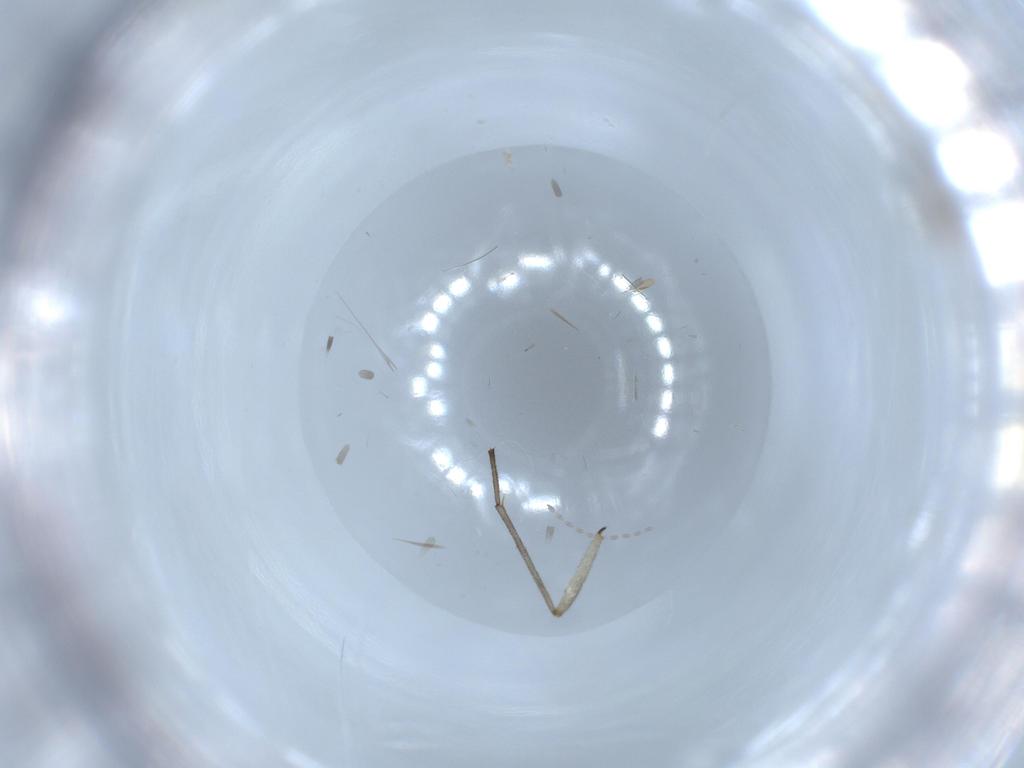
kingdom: Animalia
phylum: Arthropoda
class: Insecta
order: Diptera
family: Sciaridae
